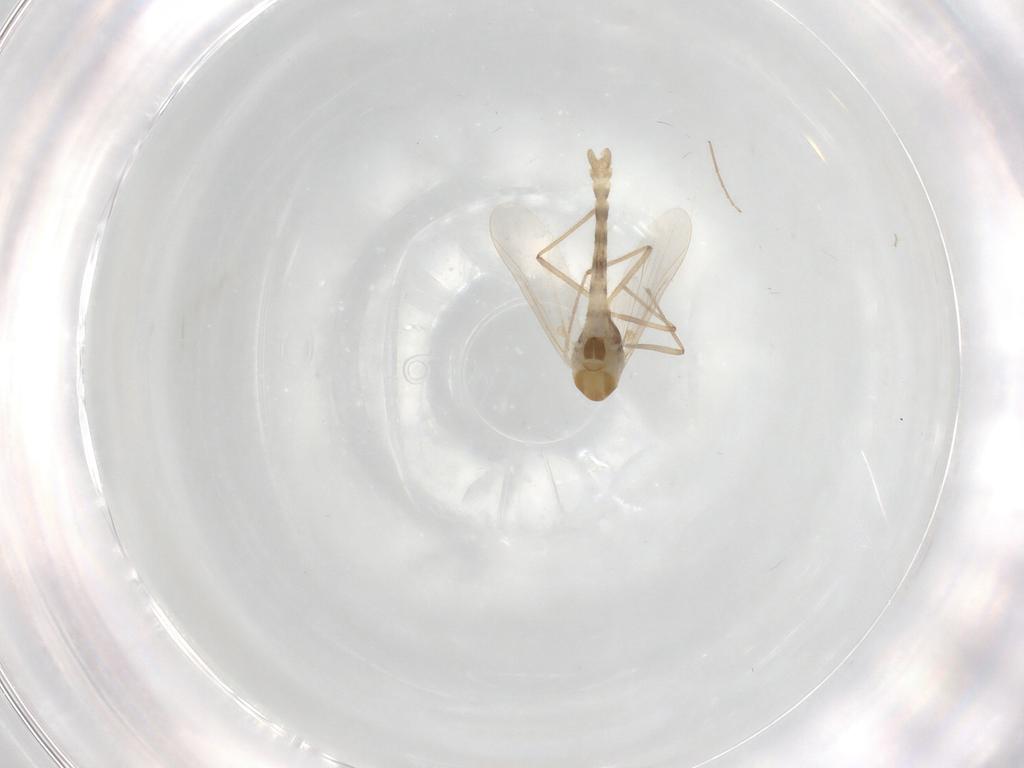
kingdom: Animalia
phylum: Arthropoda
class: Insecta
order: Diptera
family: Chironomidae
